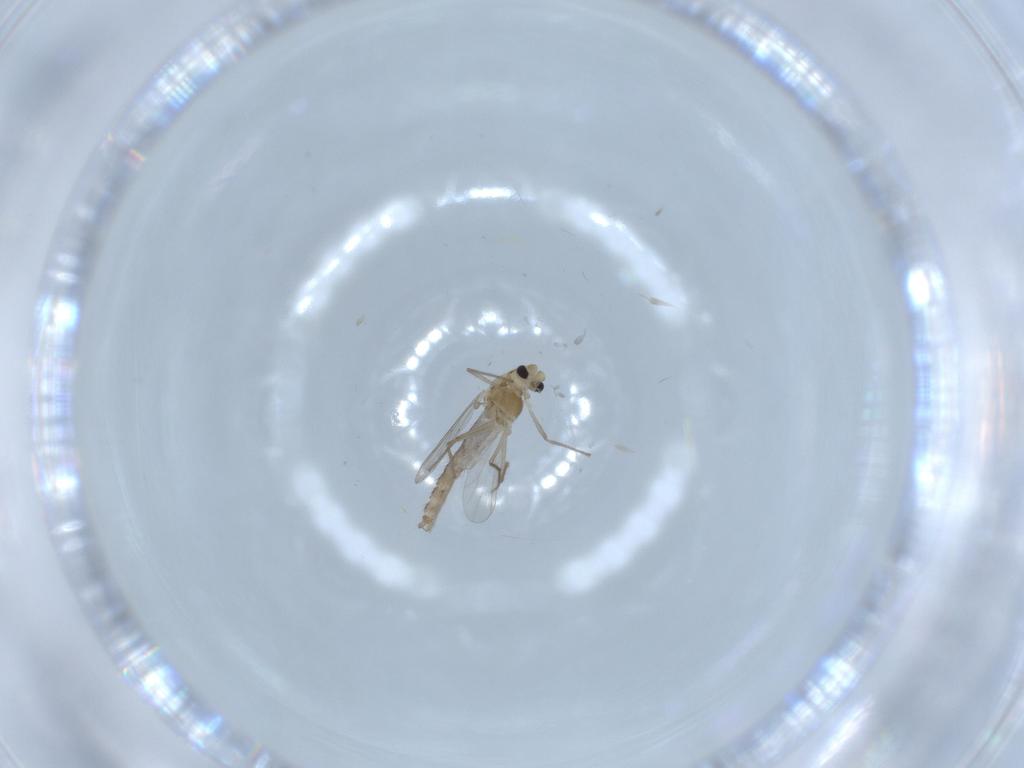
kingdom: Animalia
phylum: Arthropoda
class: Insecta
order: Diptera
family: Chironomidae
